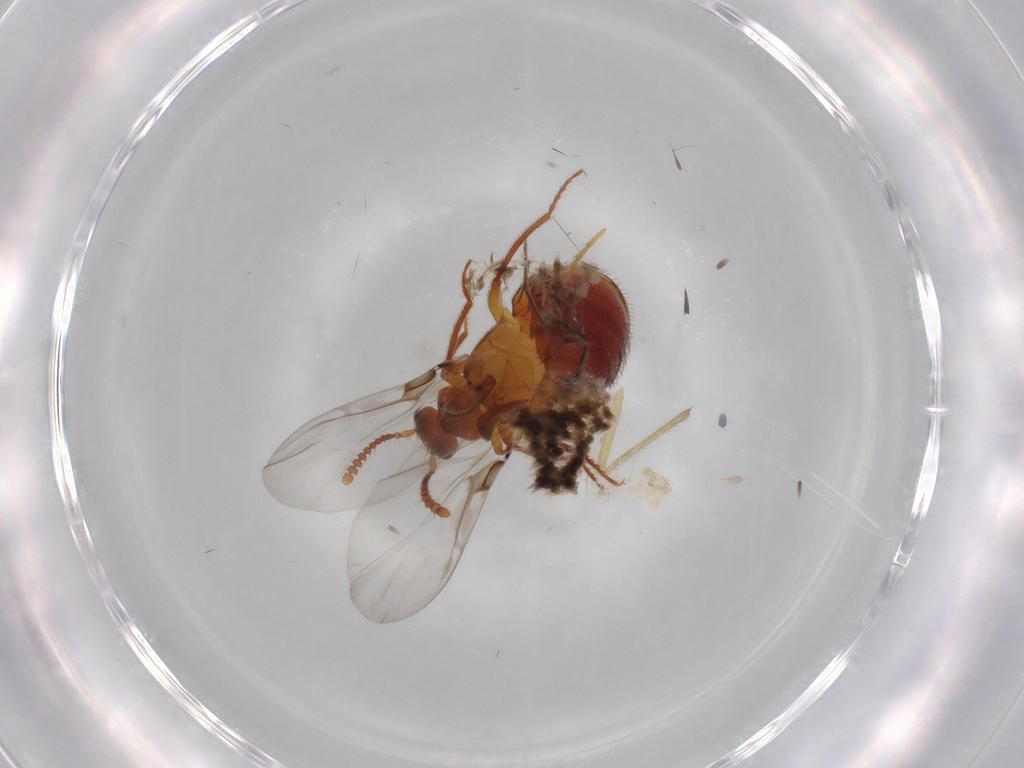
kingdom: Animalia
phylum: Arthropoda
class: Insecta
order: Coleoptera
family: Staphylinidae
